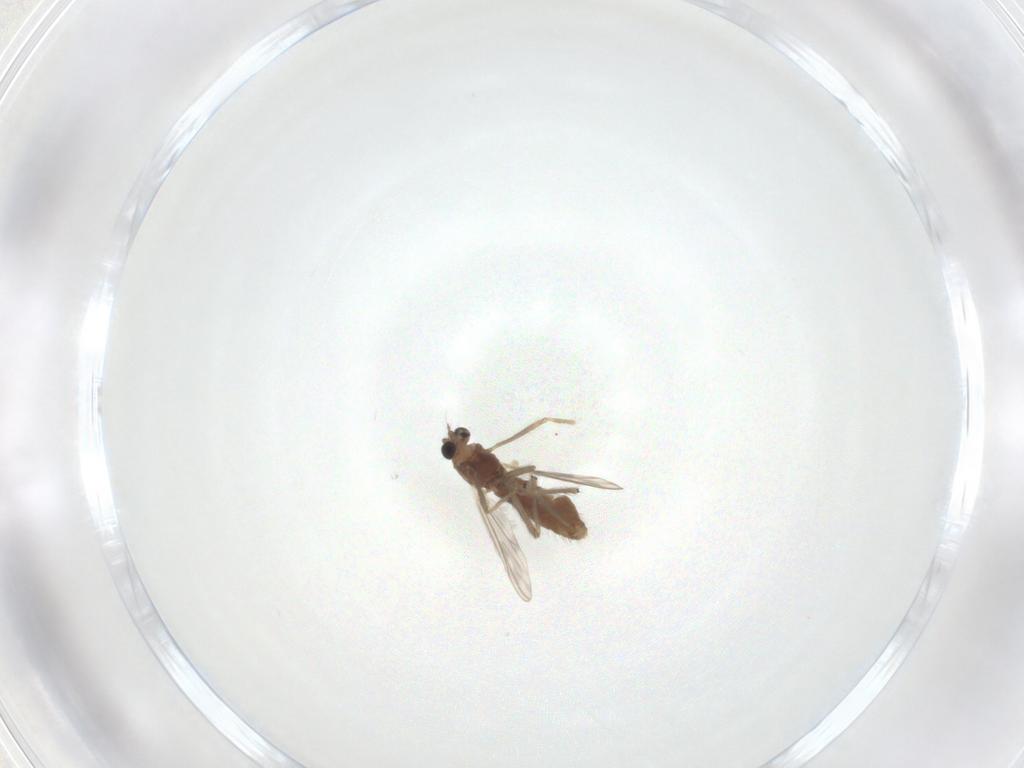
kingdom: Animalia
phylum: Arthropoda
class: Insecta
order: Diptera
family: Chironomidae
